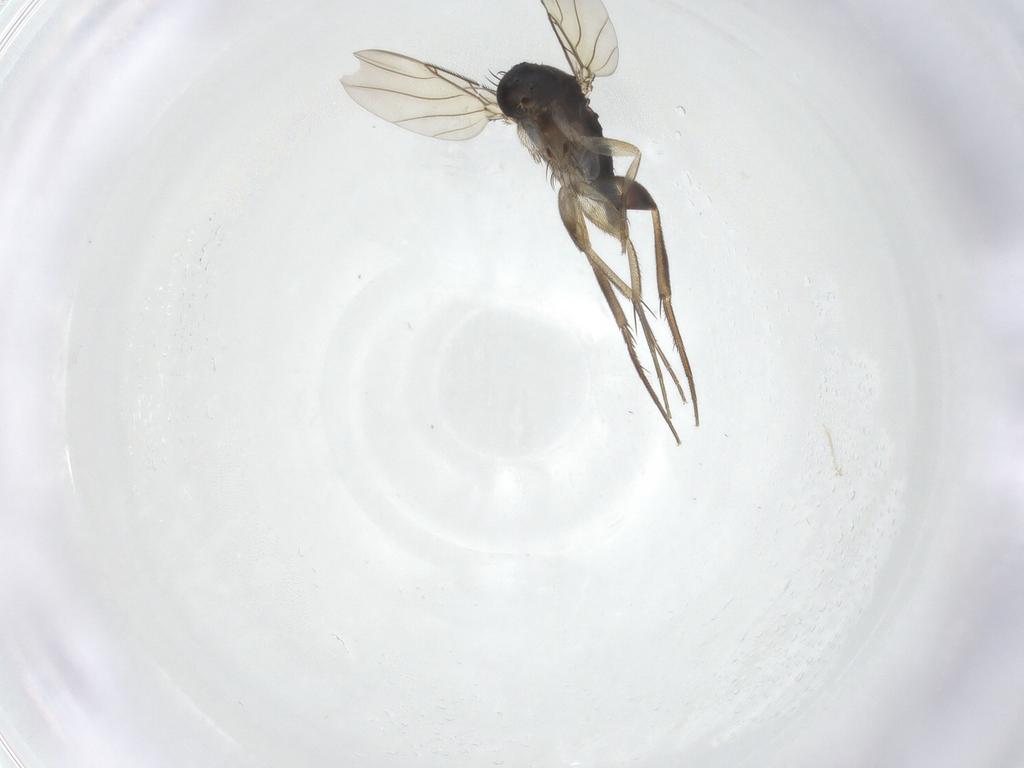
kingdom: Animalia
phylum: Arthropoda
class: Insecta
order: Diptera
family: Phoridae
